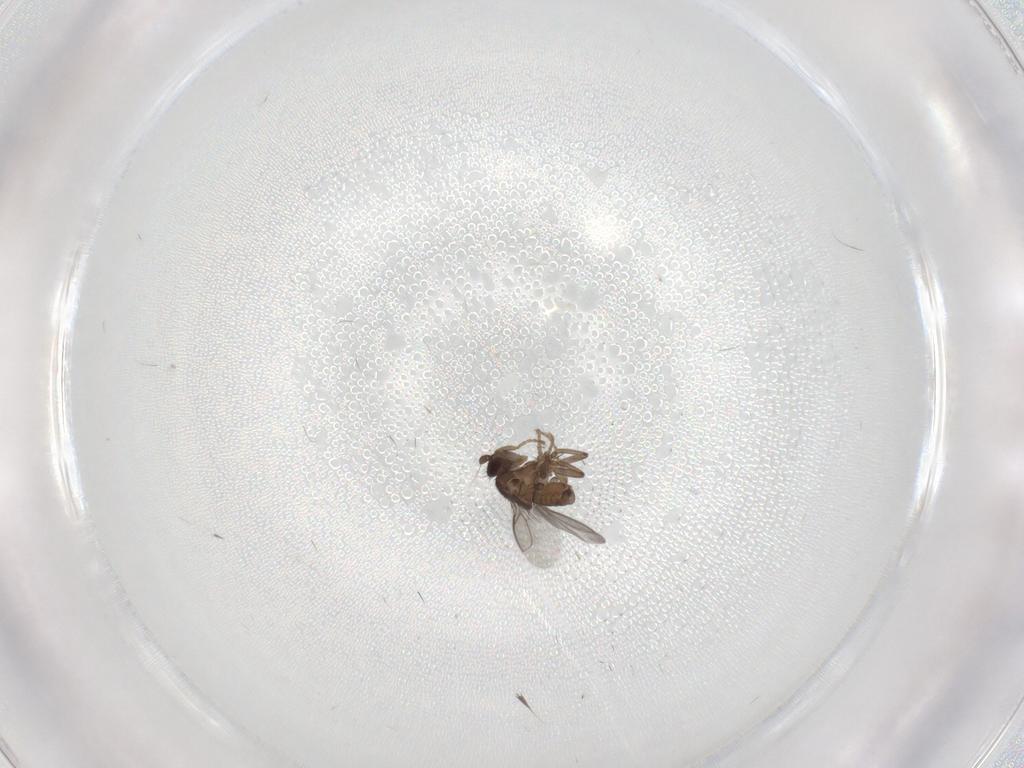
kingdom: Animalia
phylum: Arthropoda
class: Insecta
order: Diptera
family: Sphaeroceridae
